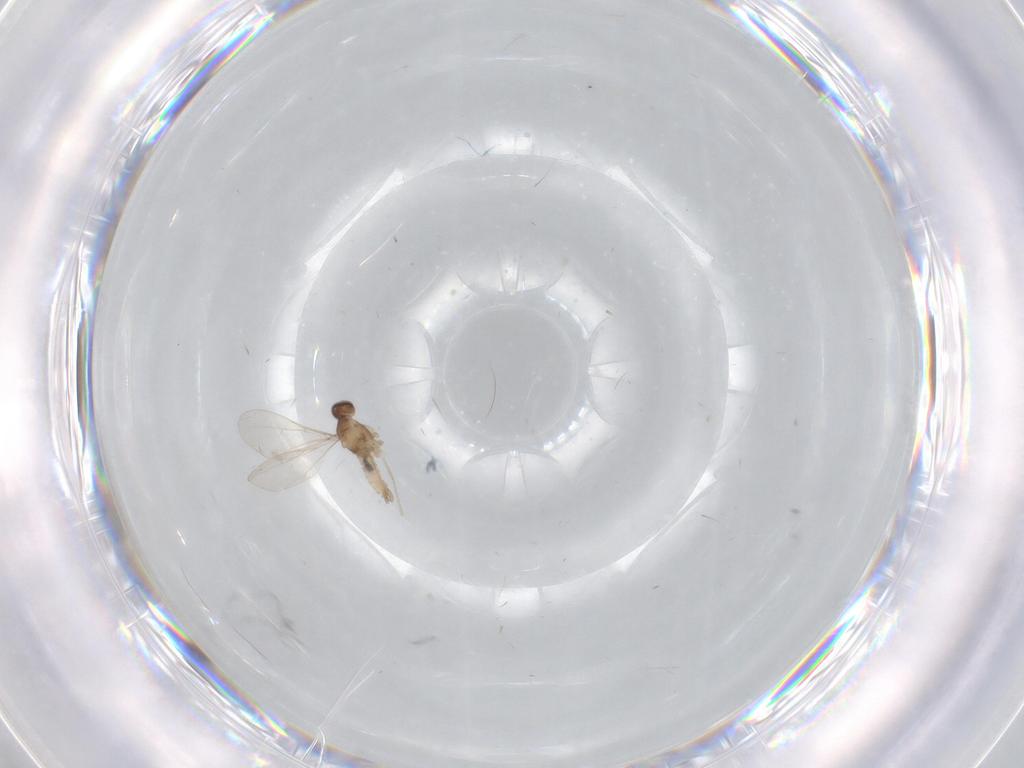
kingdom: Animalia
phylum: Arthropoda
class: Insecta
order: Diptera
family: Cecidomyiidae
